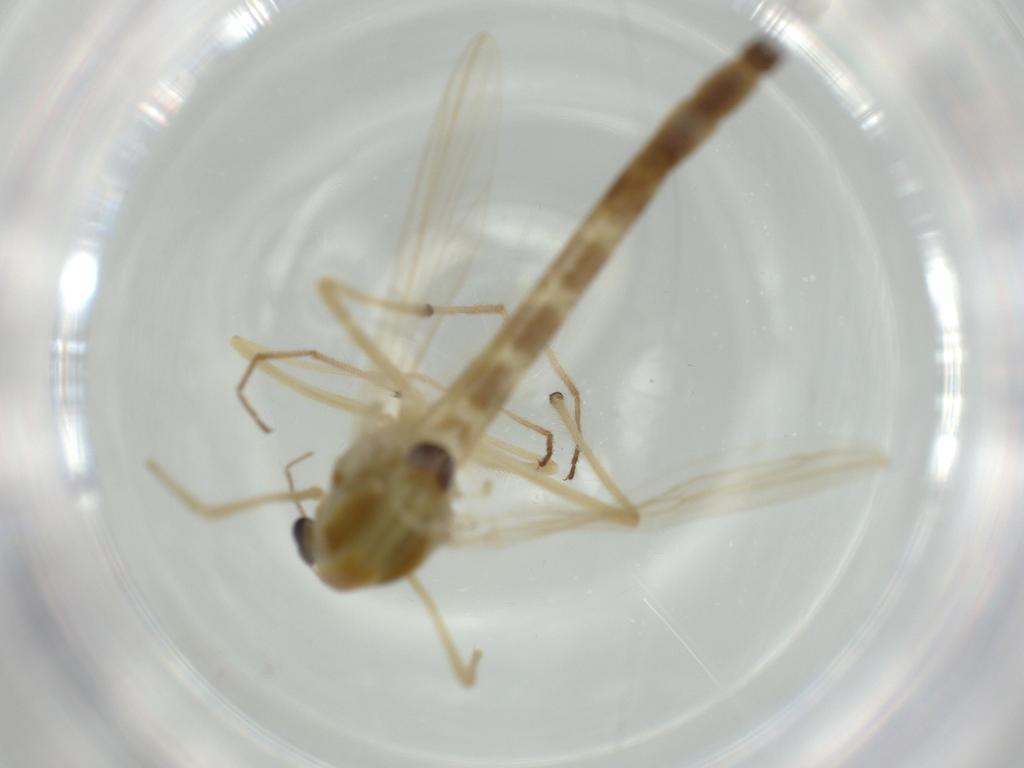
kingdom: Animalia
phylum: Arthropoda
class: Insecta
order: Diptera
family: Chironomidae
